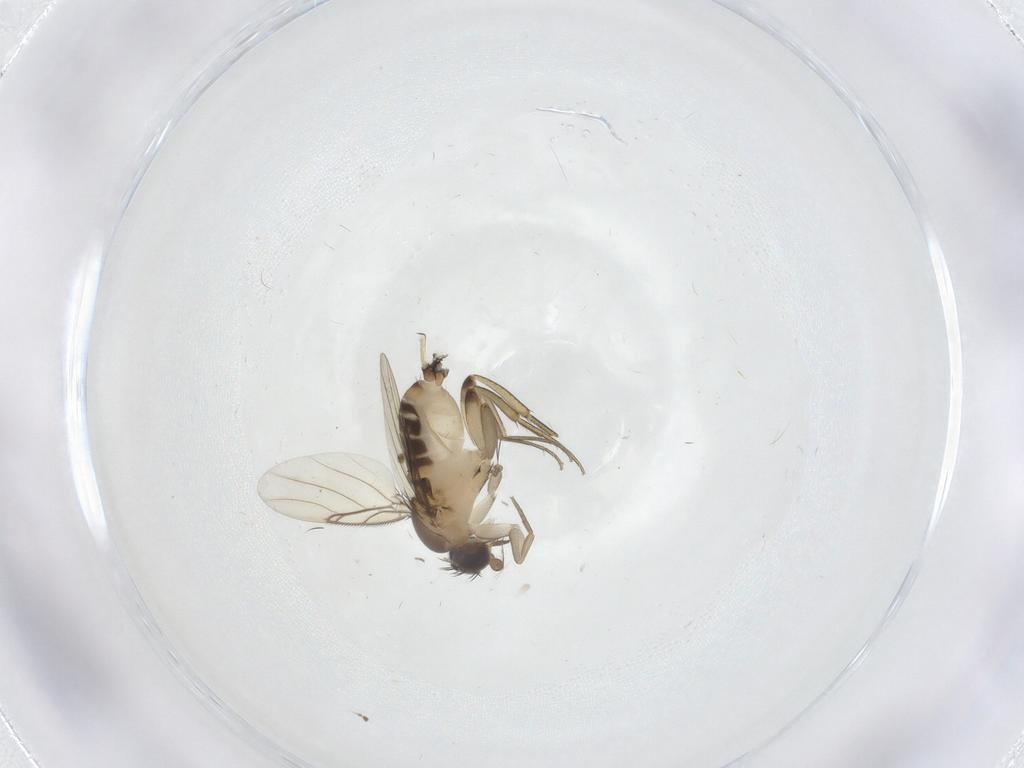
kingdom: Animalia
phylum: Arthropoda
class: Insecta
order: Diptera
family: Phoridae
